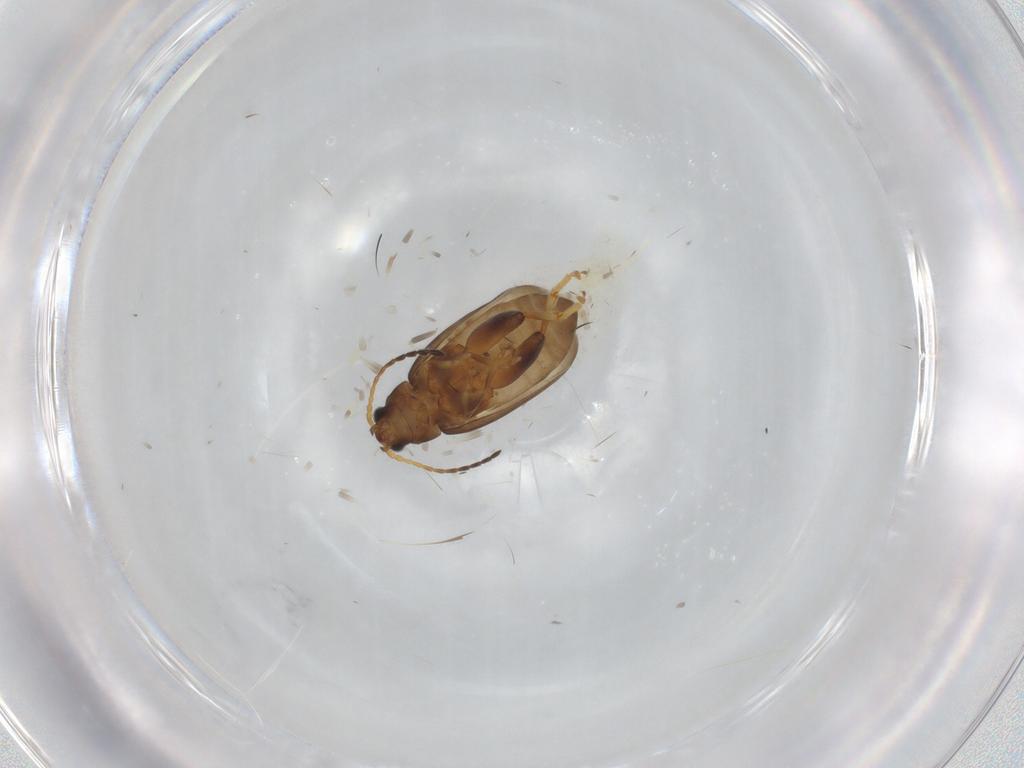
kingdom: Animalia
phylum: Arthropoda
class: Insecta
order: Coleoptera
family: Chrysomelidae
